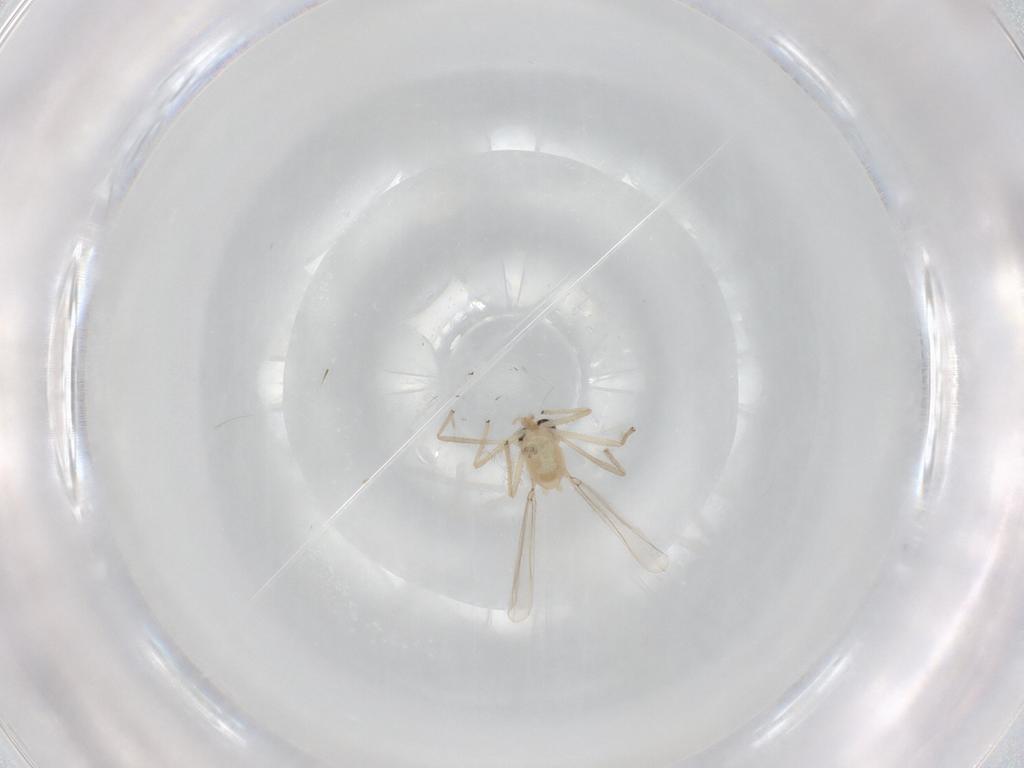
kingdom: Animalia
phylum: Arthropoda
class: Insecta
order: Diptera
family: Chironomidae
